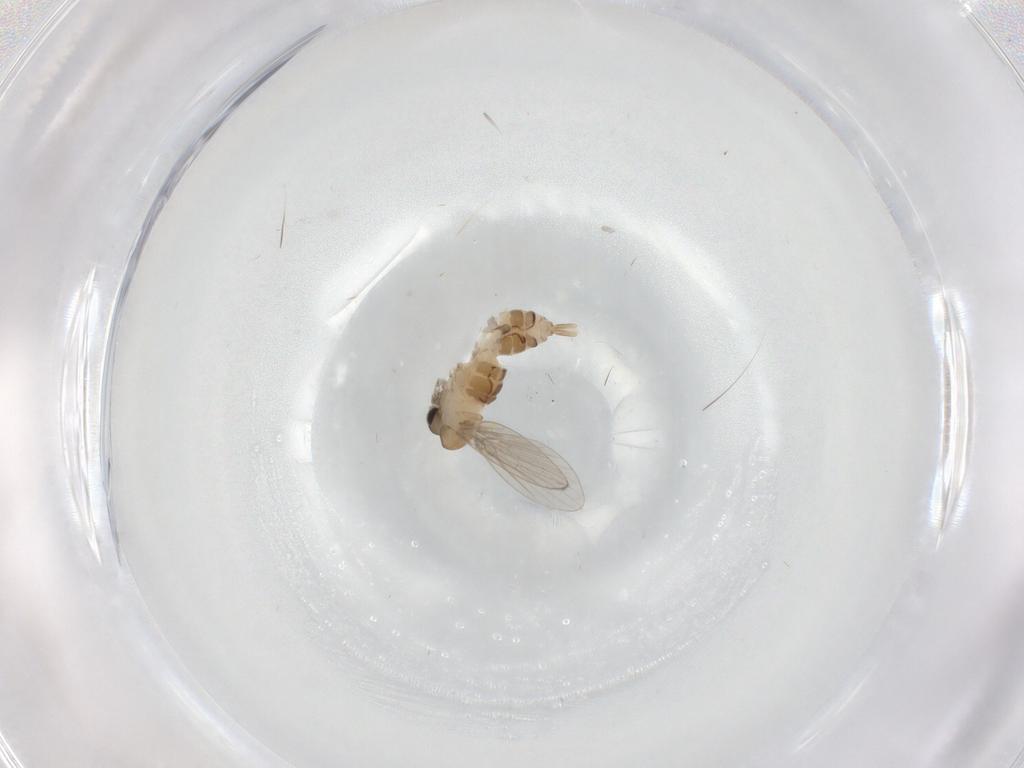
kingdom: Animalia
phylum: Arthropoda
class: Insecta
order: Diptera
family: Psychodidae
